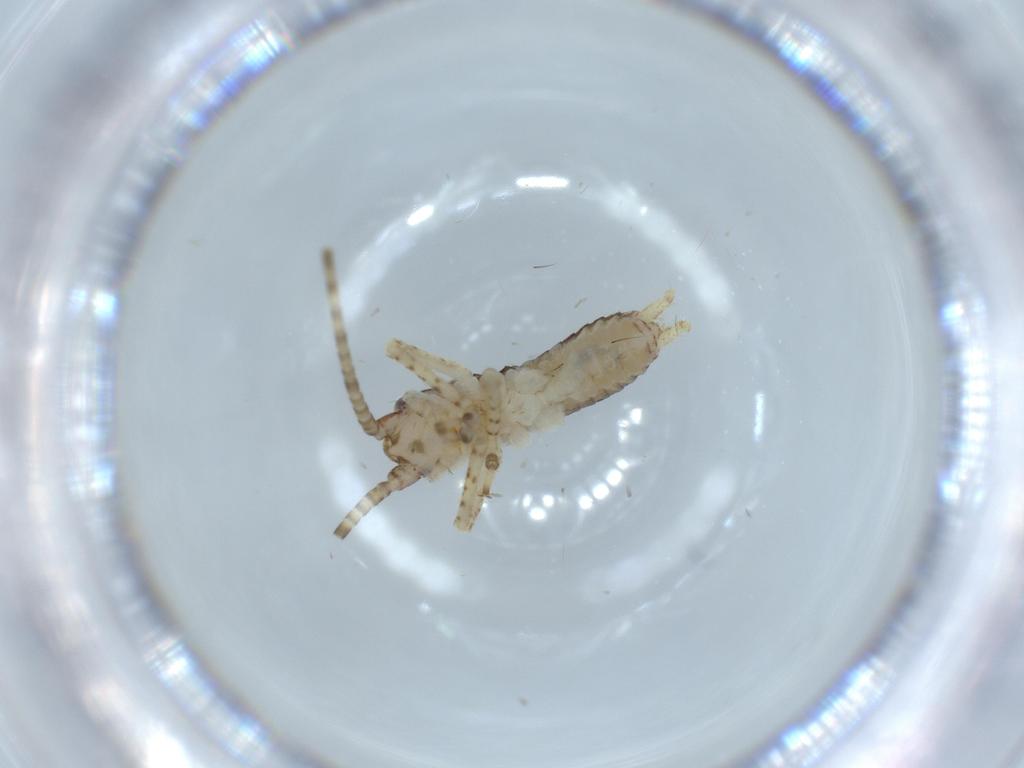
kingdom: Animalia
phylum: Arthropoda
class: Insecta
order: Orthoptera
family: Gryllidae
